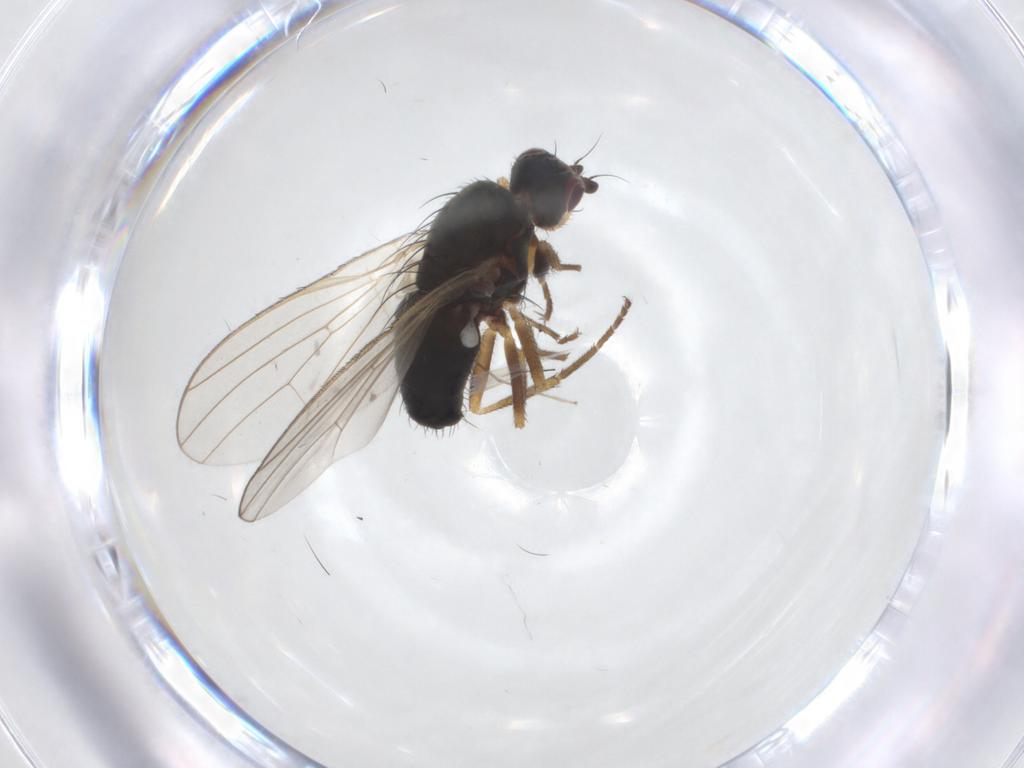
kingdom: Animalia
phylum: Arthropoda
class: Insecta
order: Diptera
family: Heleomyzidae
